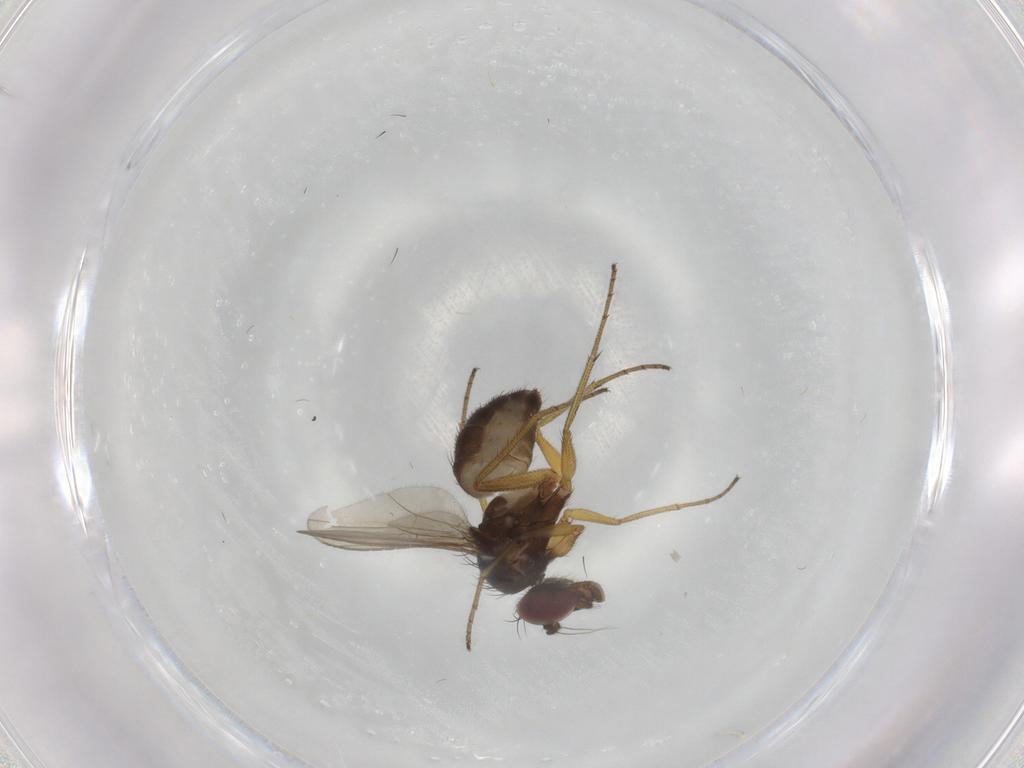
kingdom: Animalia
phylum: Arthropoda
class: Insecta
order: Diptera
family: Dolichopodidae
